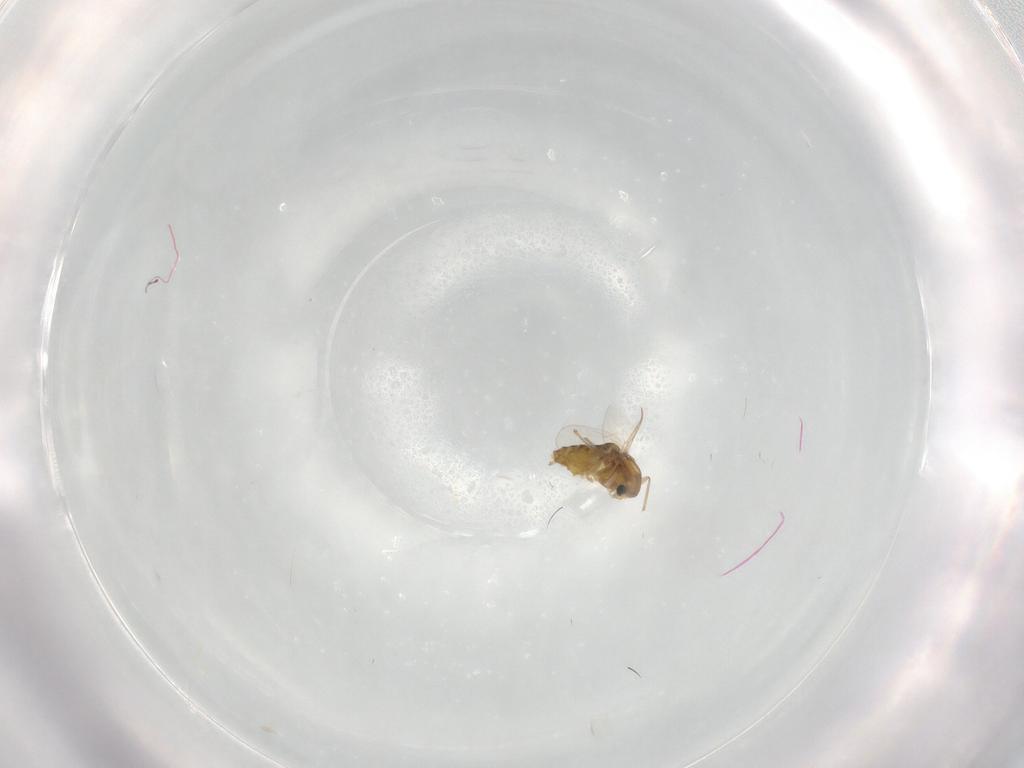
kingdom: Animalia
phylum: Arthropoda
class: Insecta
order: Diptera
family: Chironomidae
